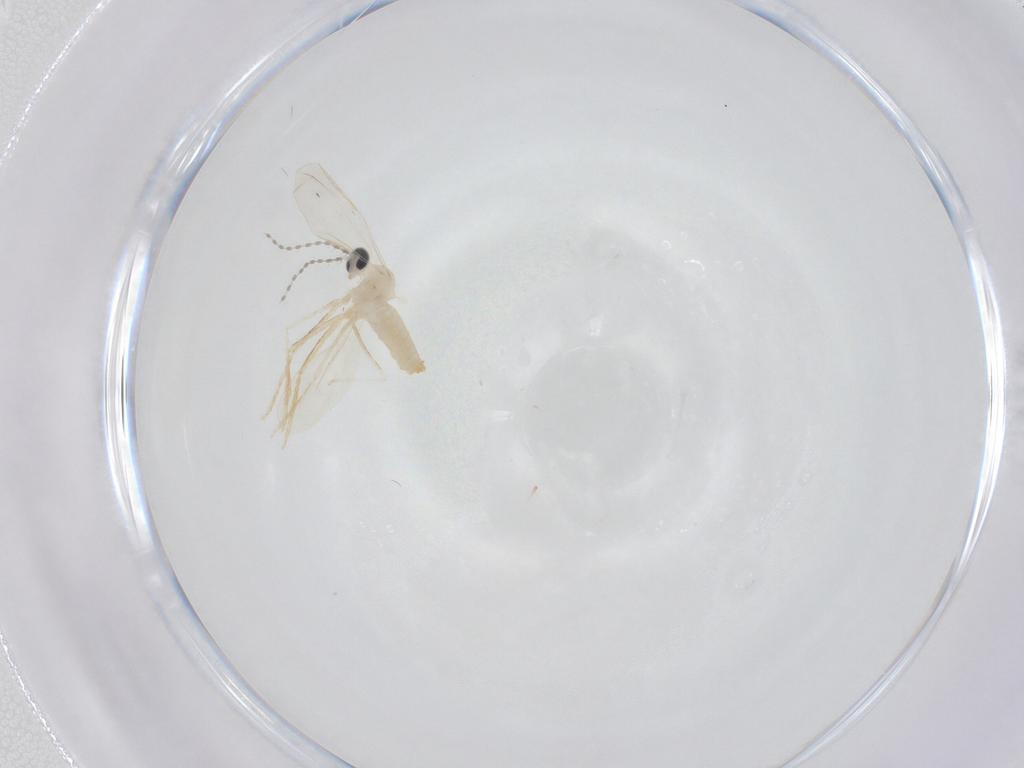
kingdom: Animalia
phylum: Arthropoda
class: Insecta
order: Diptera
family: Cecidomyiidae
